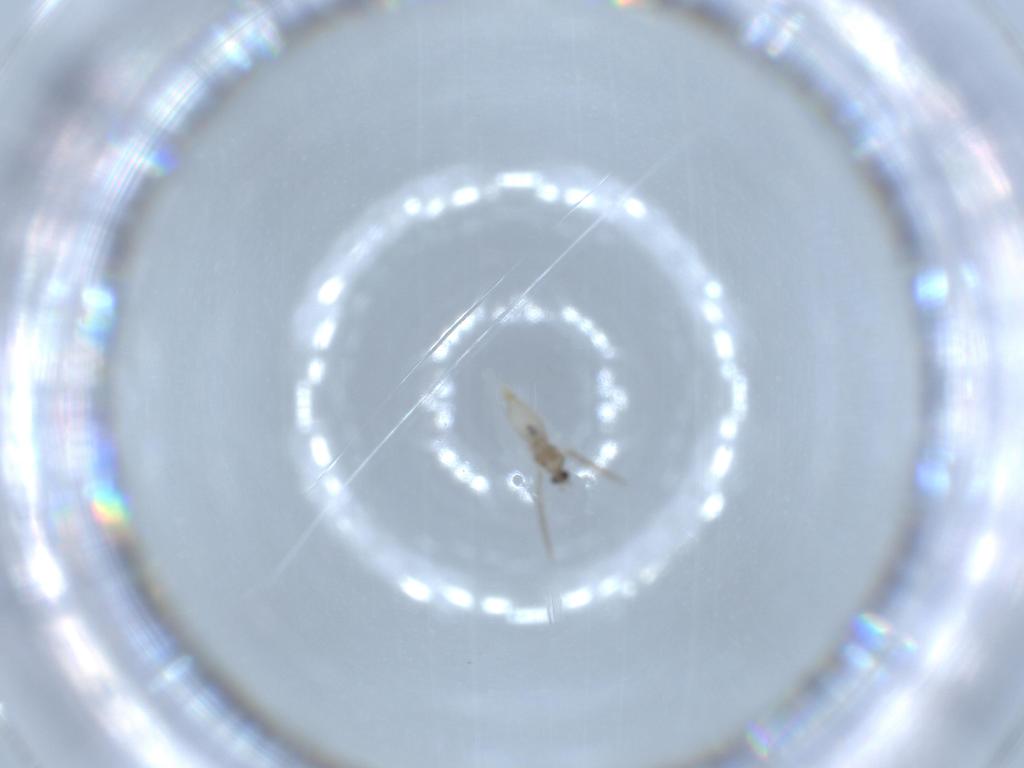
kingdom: Animalia
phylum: Arthropoda
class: Insecta
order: Diptera
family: Cecidomyiidae
